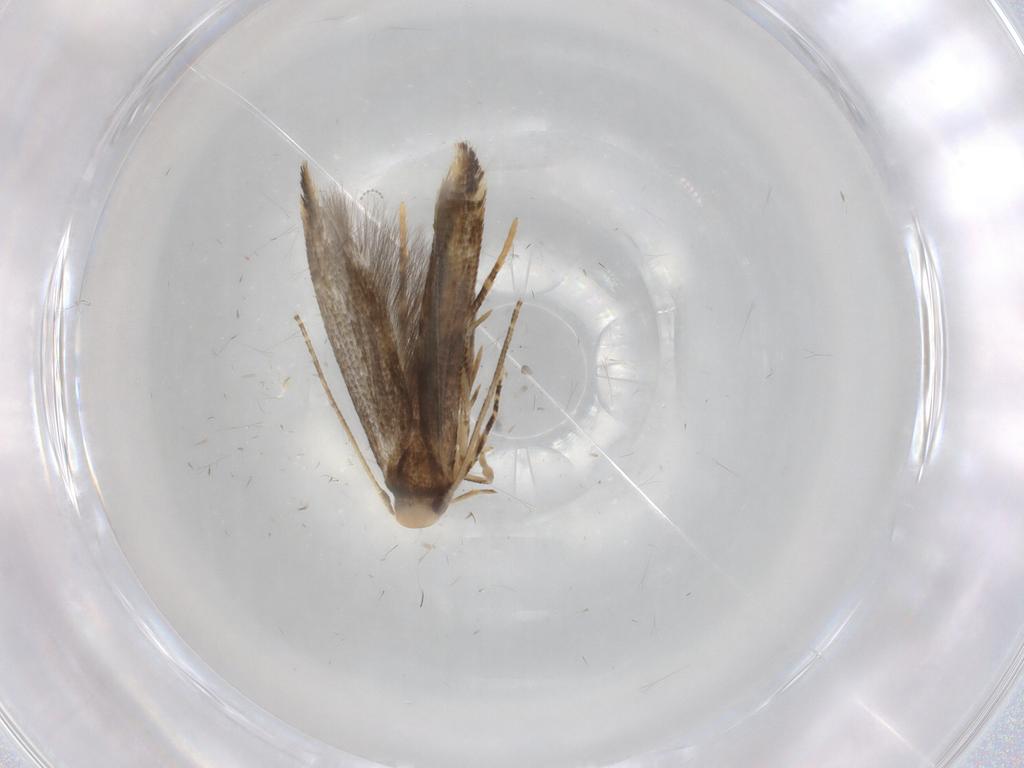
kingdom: Animalia
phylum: Arthropoda
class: Insecta
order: Lepidoptera
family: Momphidae
